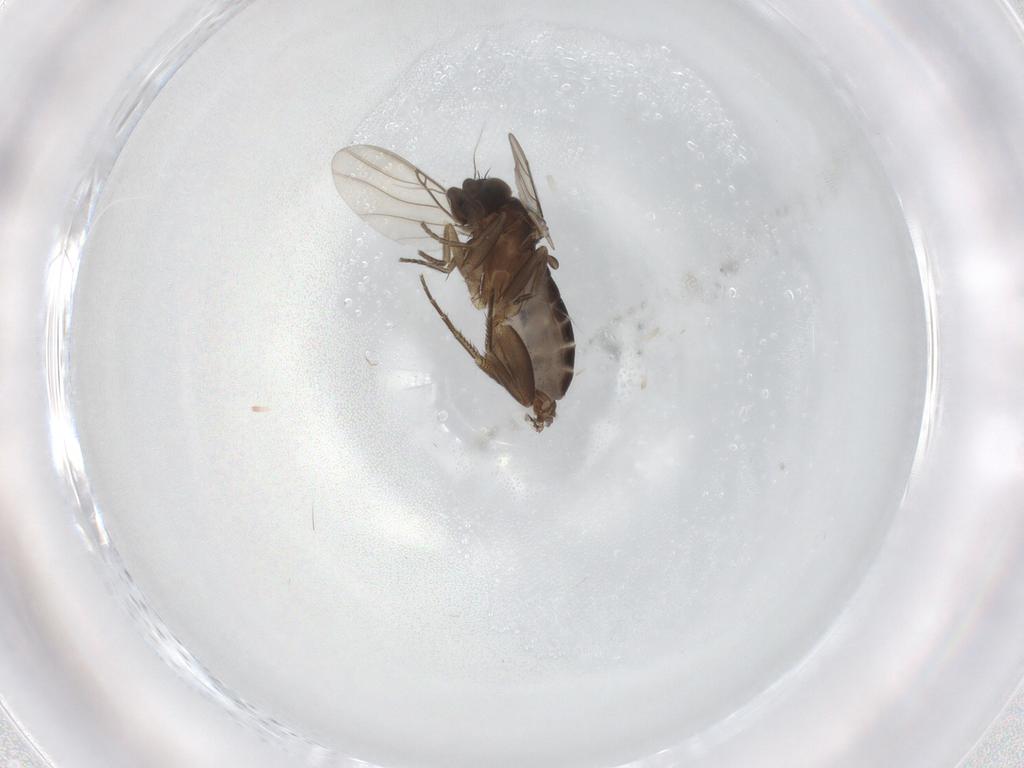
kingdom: Animalia
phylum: Arthropoda
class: Insecta
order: Diptera
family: Phoridae
